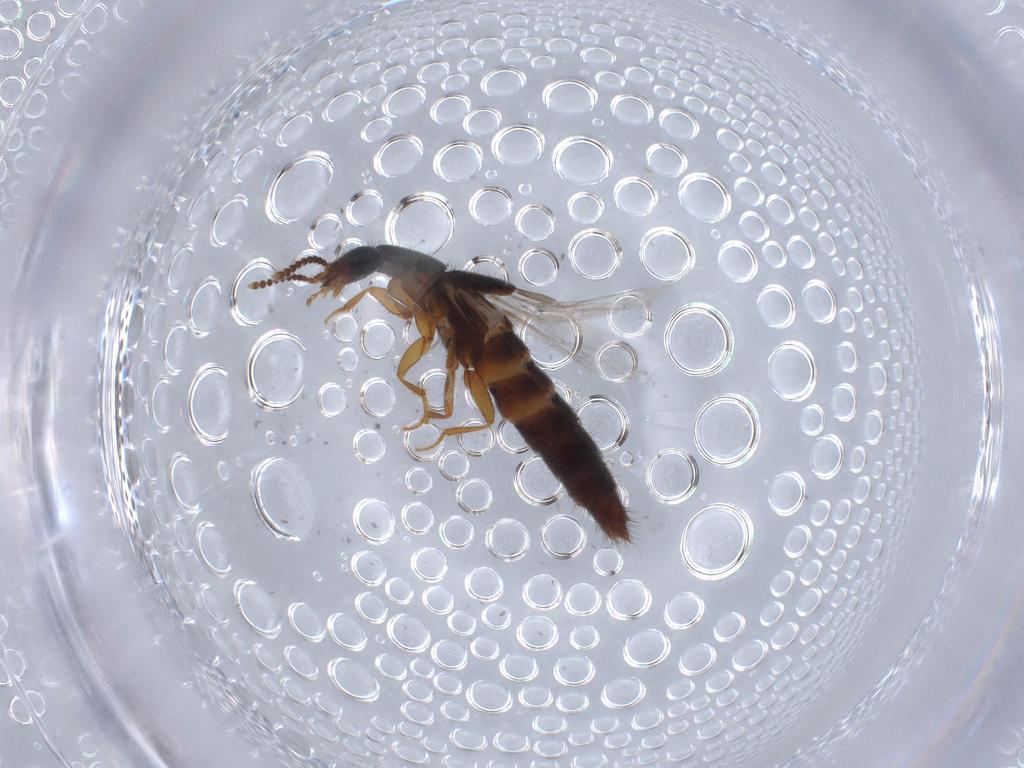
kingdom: Animalia
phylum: Arthropoda
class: Insecta
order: Coleoptera
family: Staphylinidae
